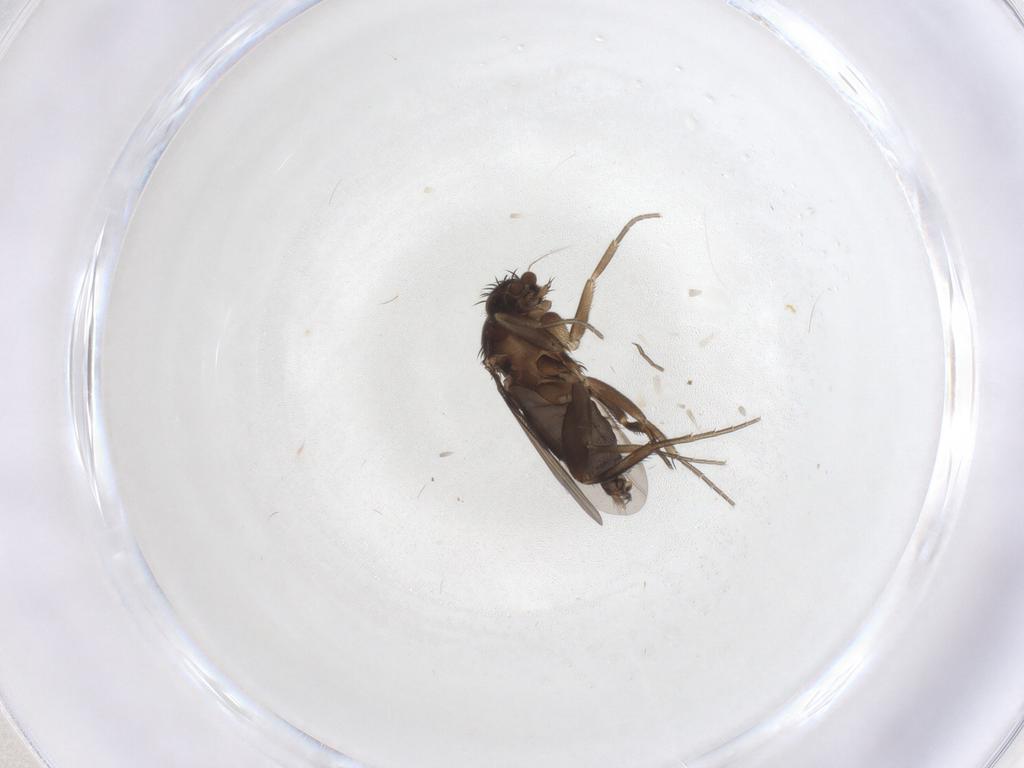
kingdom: Animalia
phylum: Arthropoda
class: Insecta
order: Diptera
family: Phoridae
